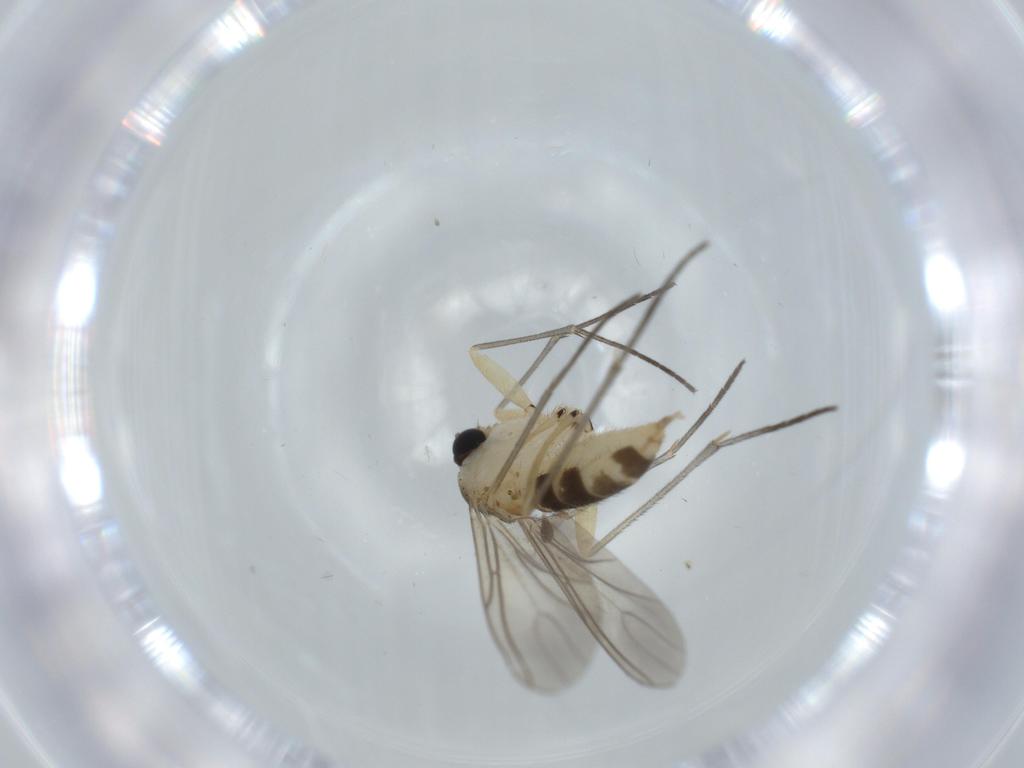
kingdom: Animalia
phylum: Arthropoda
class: Insecta
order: Diptera
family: Sciaridae
